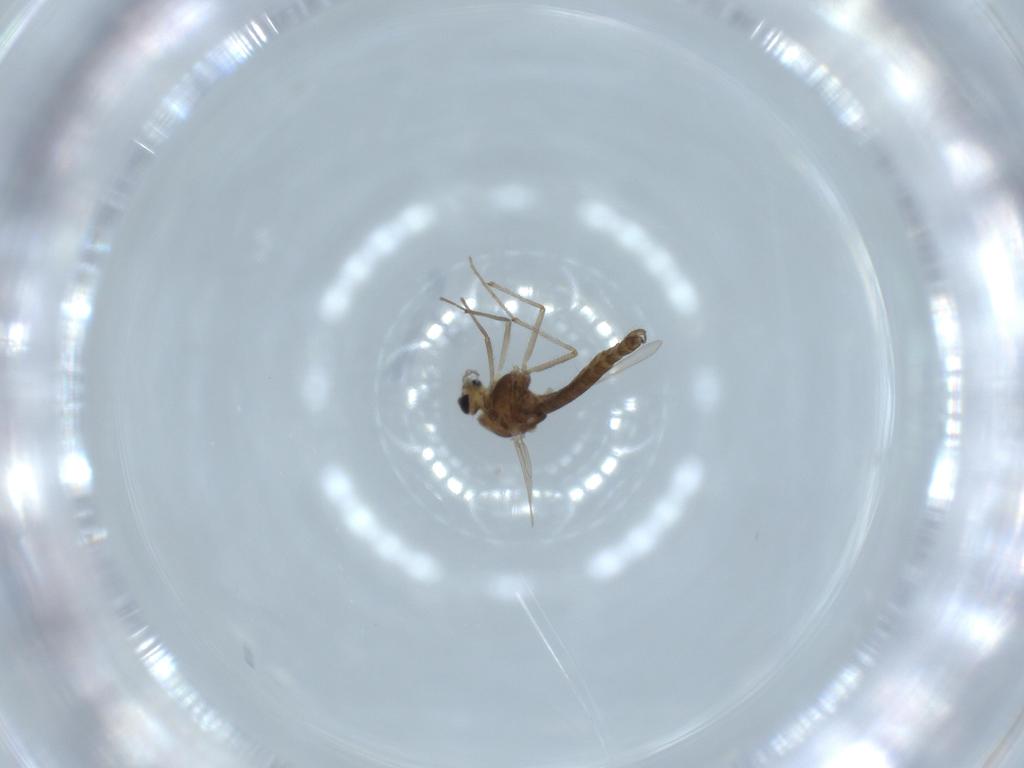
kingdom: Animalia
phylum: Arthropoda
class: Insecta
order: Diptera
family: Chironomidae
